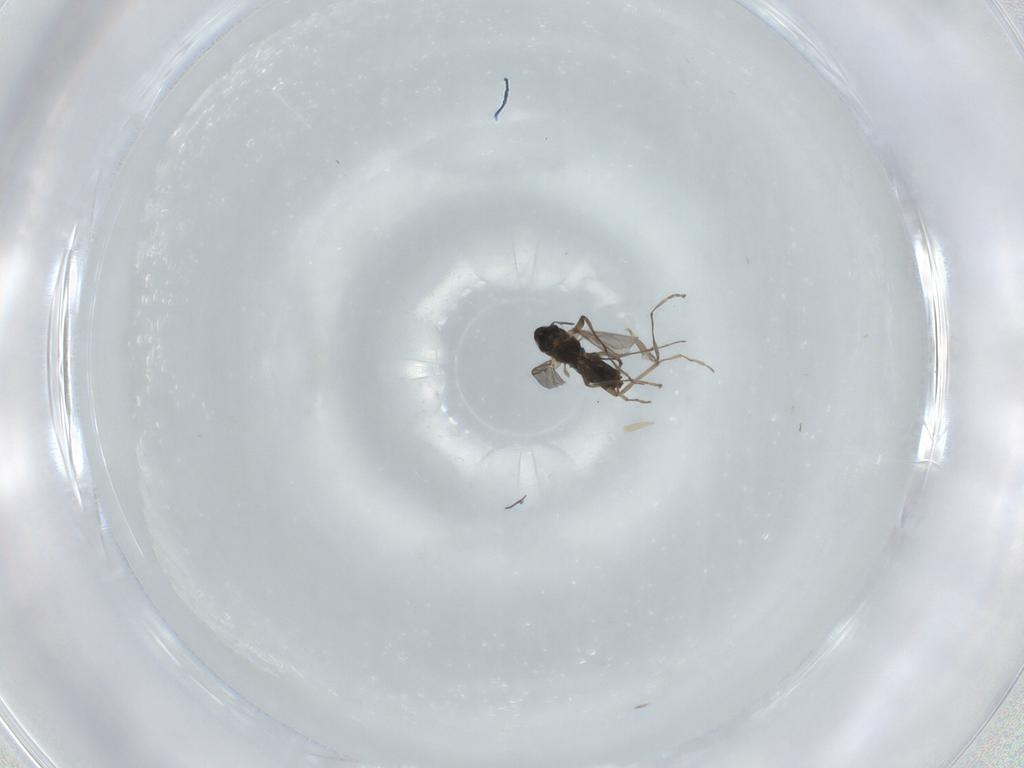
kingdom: Animalia
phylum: Arthropoda
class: Insecta
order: Diptera
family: Chironomidae
